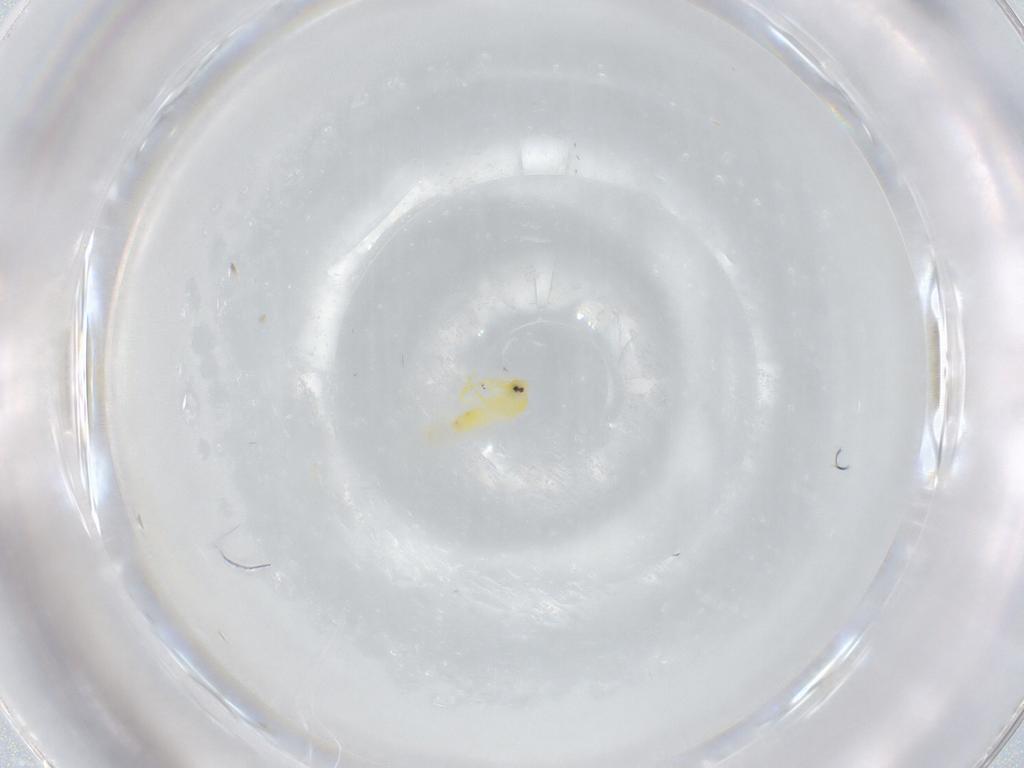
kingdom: Animalia
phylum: Arthropoda
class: Insecta
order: Hemiptera
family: Aleyrodidae
